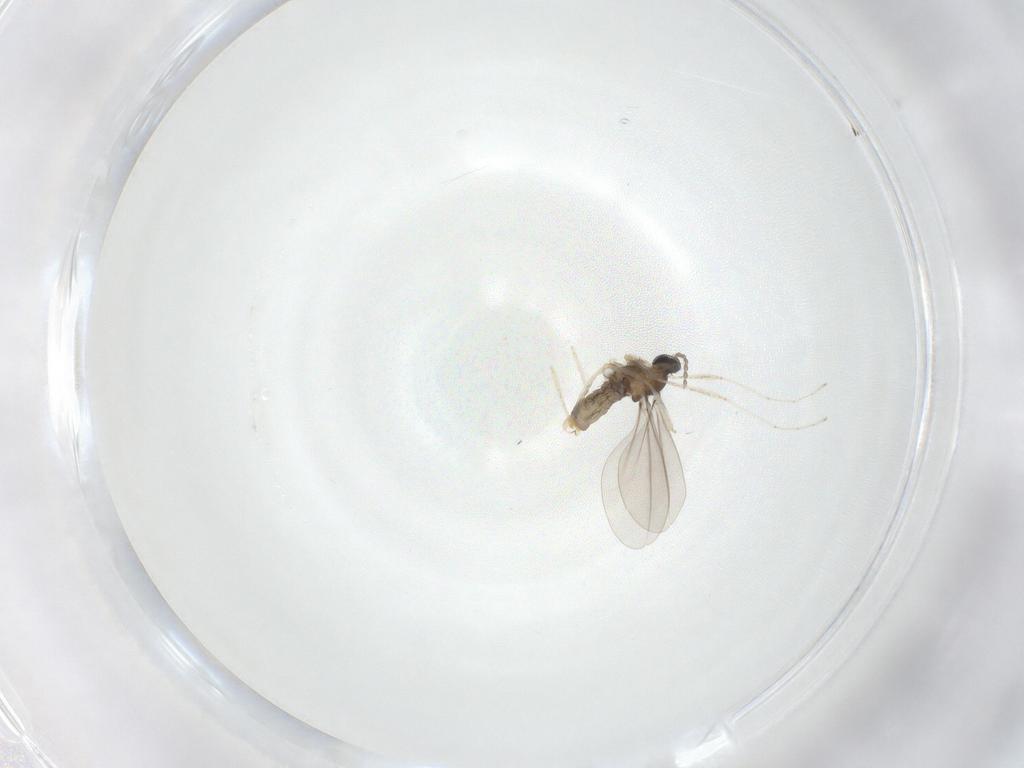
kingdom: Animalia
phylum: Arthropoda
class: Insecta
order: Diptera
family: Cecidomyiidae
